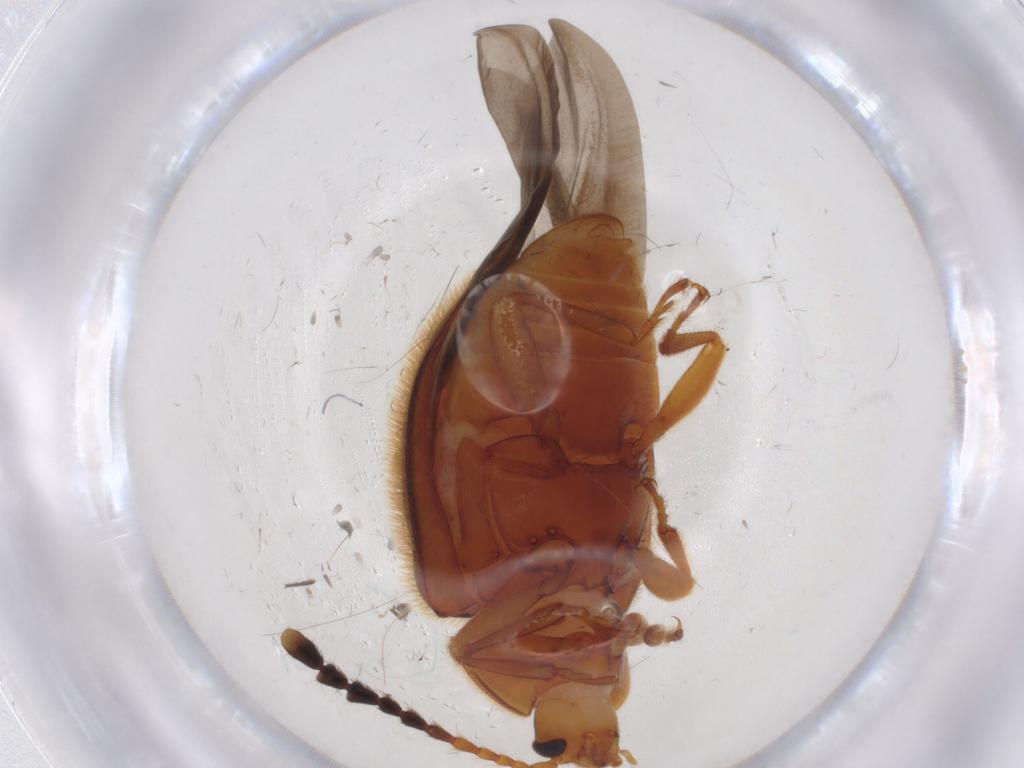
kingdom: Animalia
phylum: Arthropoda
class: Insecta
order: Coleoptera
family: Endomychidae
